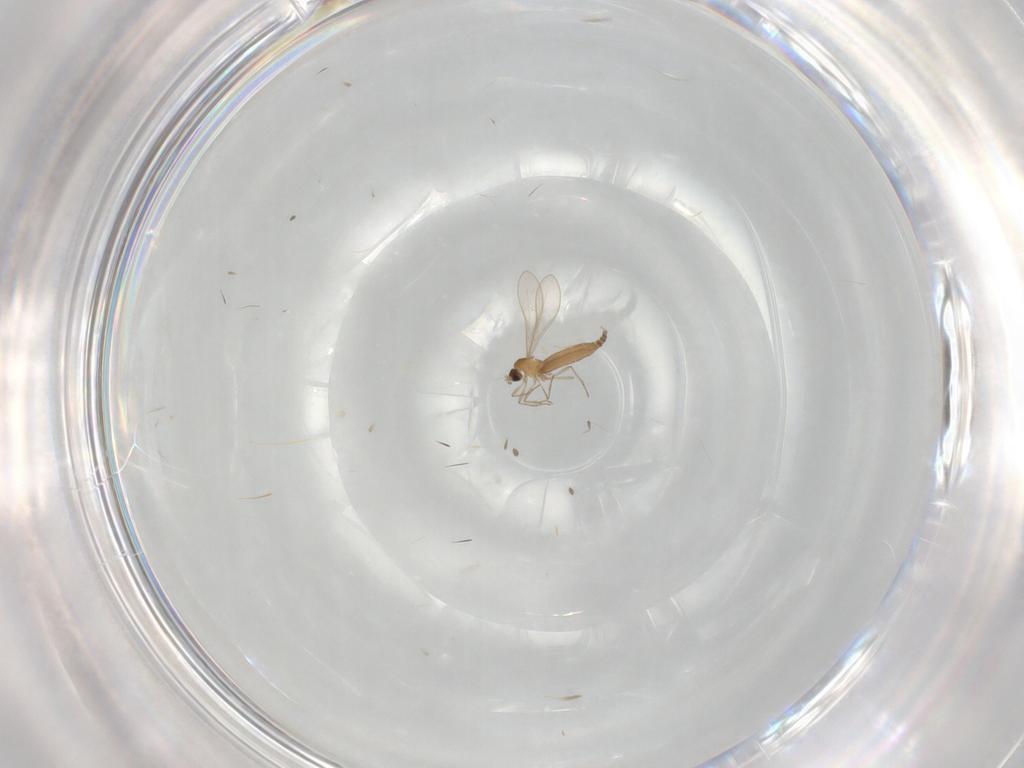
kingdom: Animalia
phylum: Arthropoda
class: Insecta
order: Diptera
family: Cecidomyiidae
